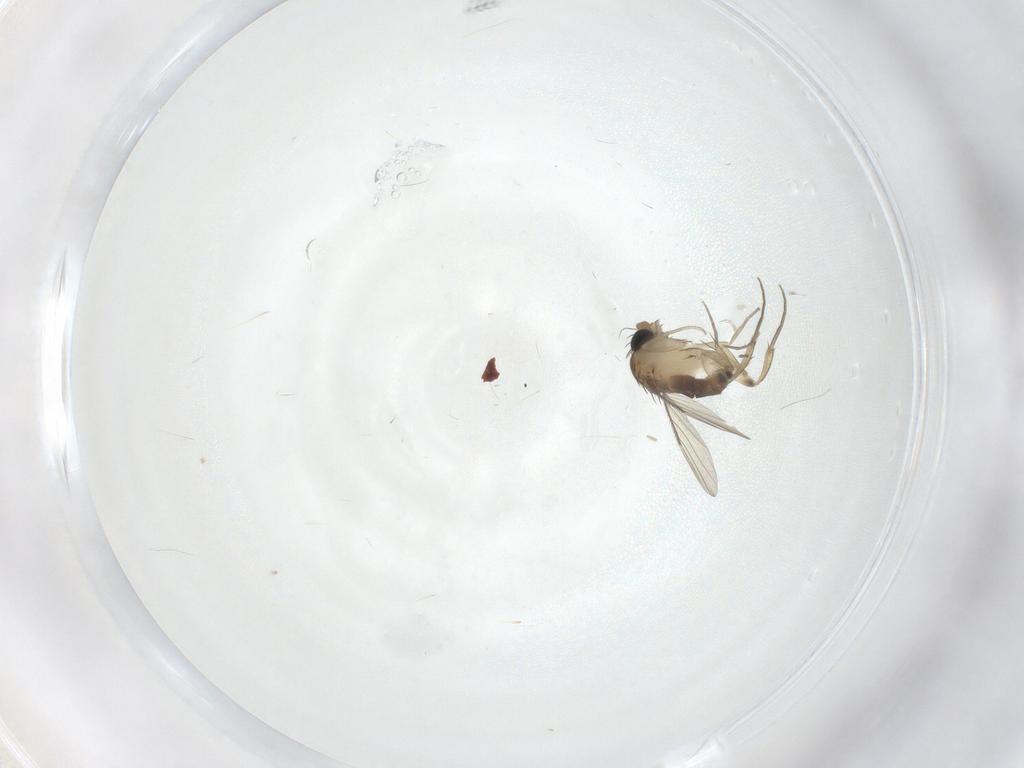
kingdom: Animalia
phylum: Arthropoda
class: Insecta
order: Diptera
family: Phoridae
